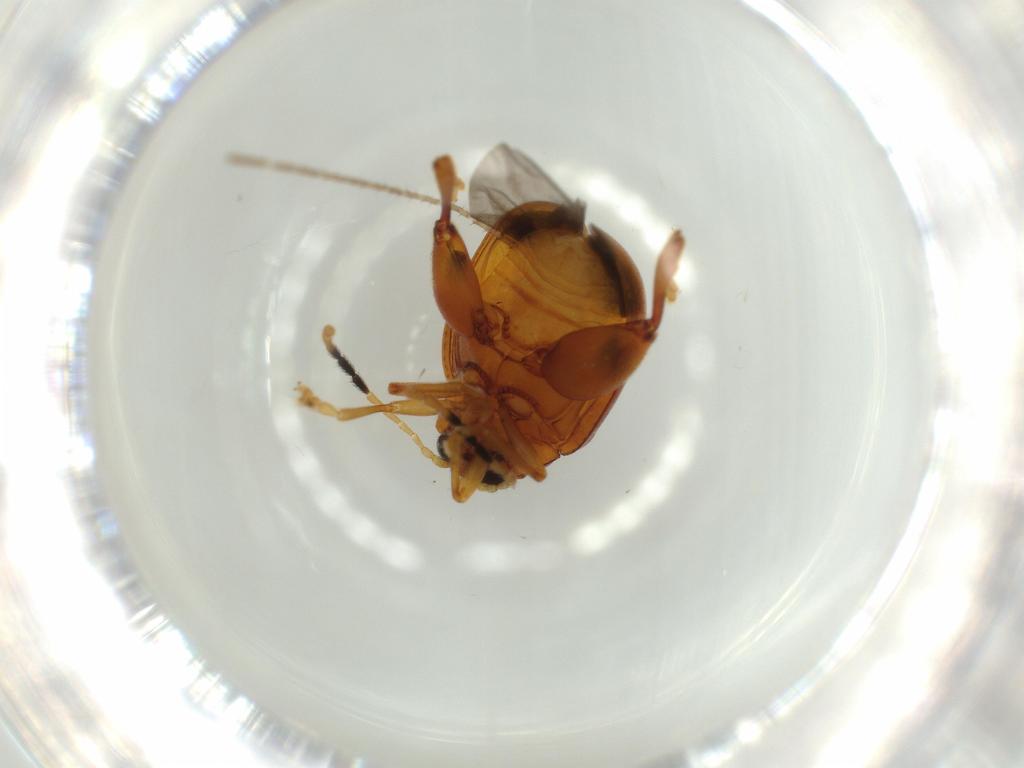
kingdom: Animalia
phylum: Arthropoda
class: Insecta
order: Coleoptera
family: Chrysomelidae
